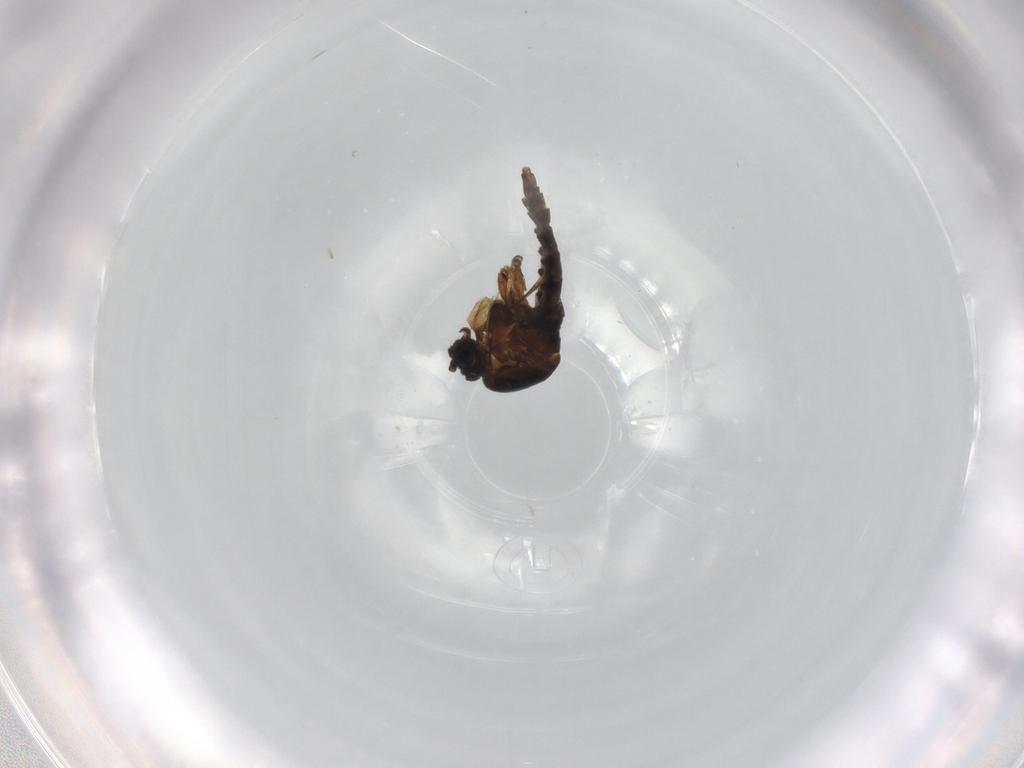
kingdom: Animalia
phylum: Arthropoda
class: Insecta
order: Diptera
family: Sciaridae
